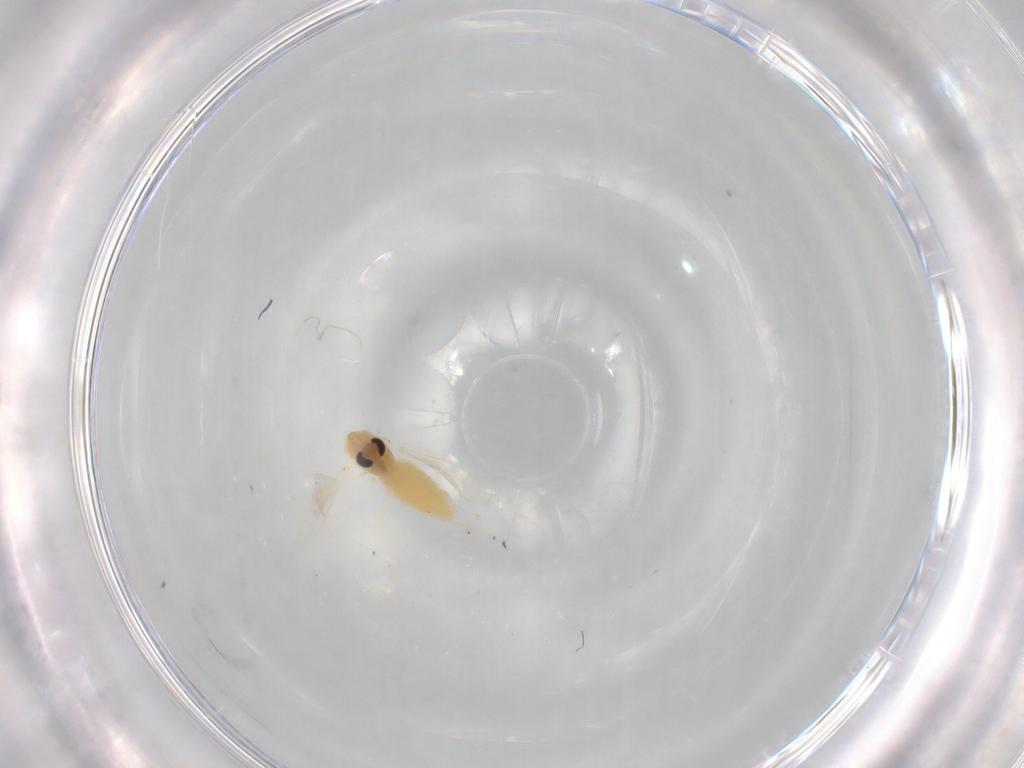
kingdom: Animalia
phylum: Arthropoda
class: Insecta
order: Diptera
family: Chironomidae
